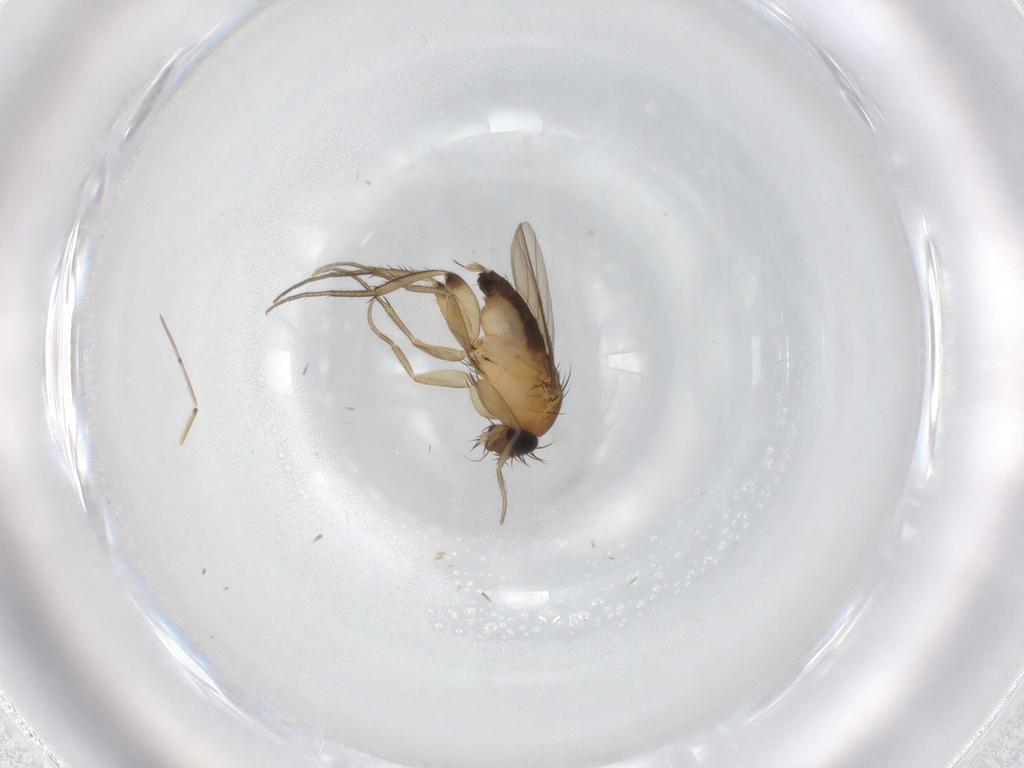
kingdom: Animalia
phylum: Arthropoda
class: Insecta
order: Diptera
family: Phoridae
